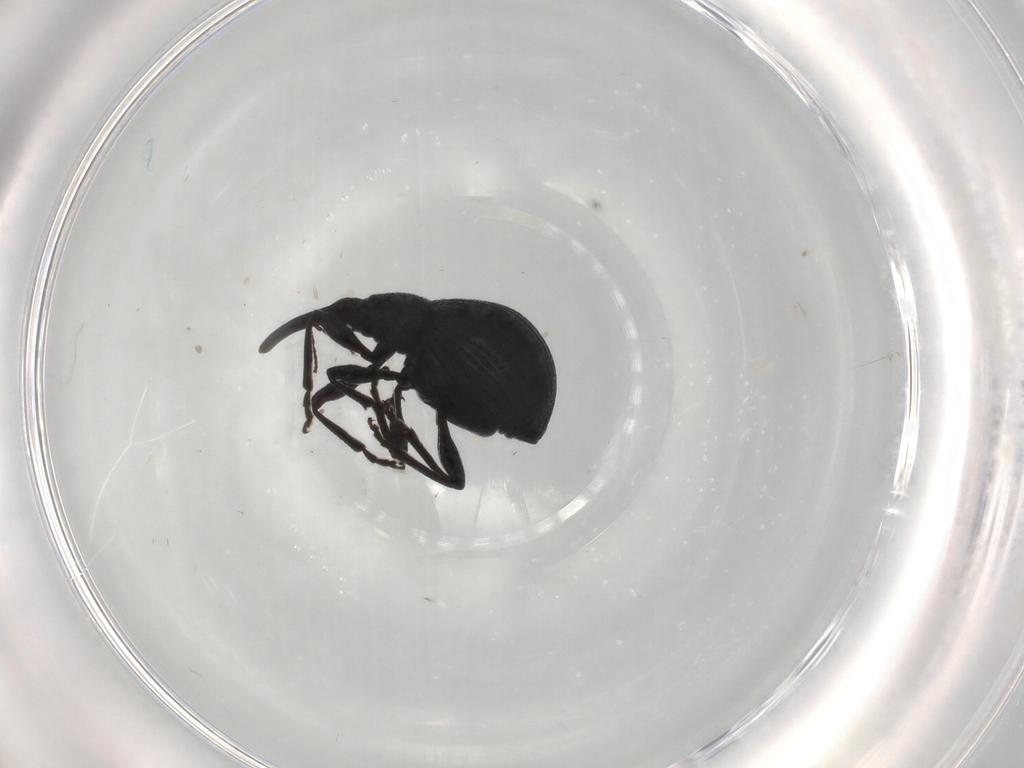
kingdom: Animalia
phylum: Arthropoda
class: Insecta
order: Coleoptera
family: Brentidae
